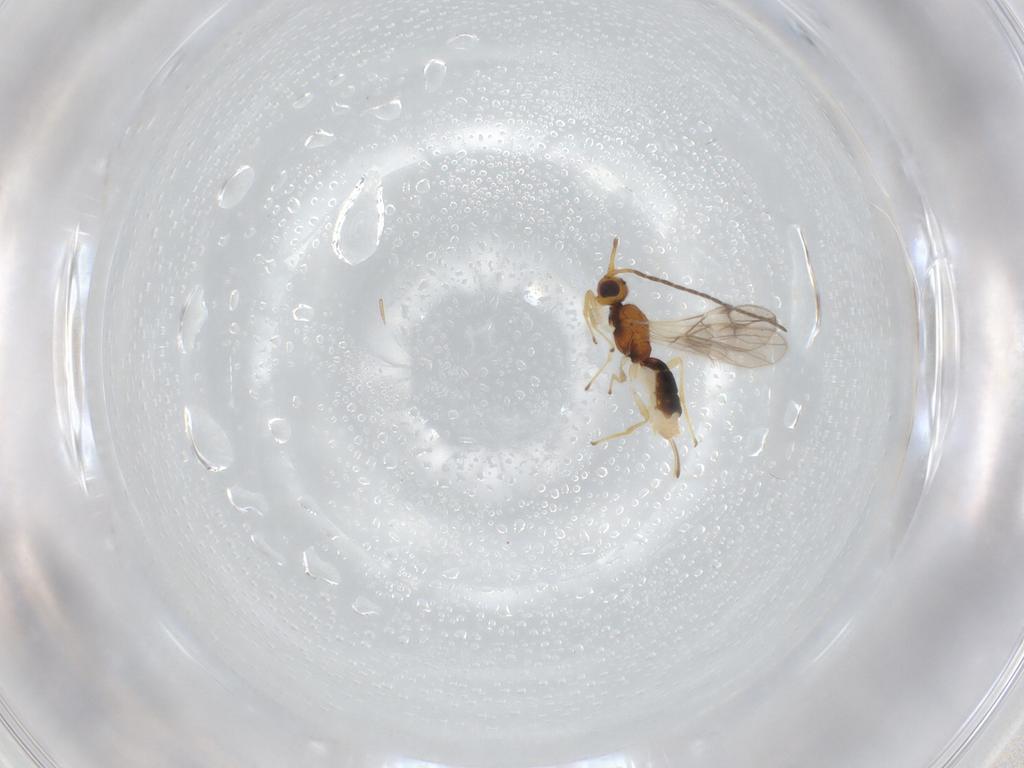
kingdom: Animalia
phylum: Arthropoda
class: Insecta
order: Hymenoptera
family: Braconidae
